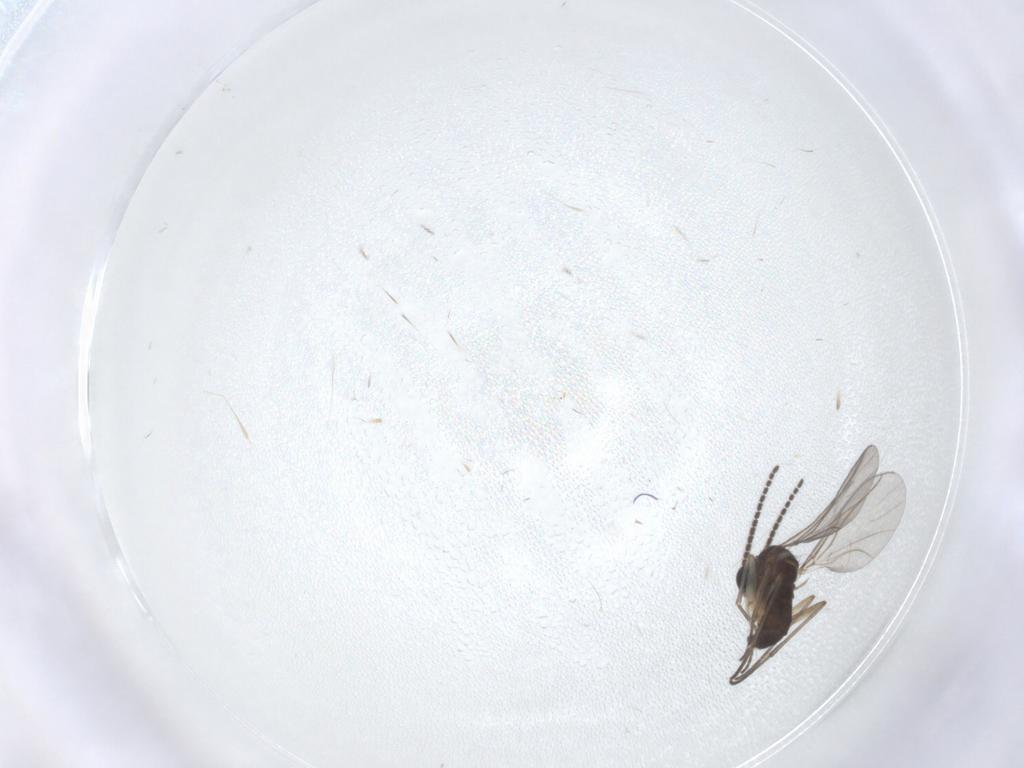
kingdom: Animalia
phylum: Arthropoda
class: Insecta
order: Diptera
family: Sciaridae
